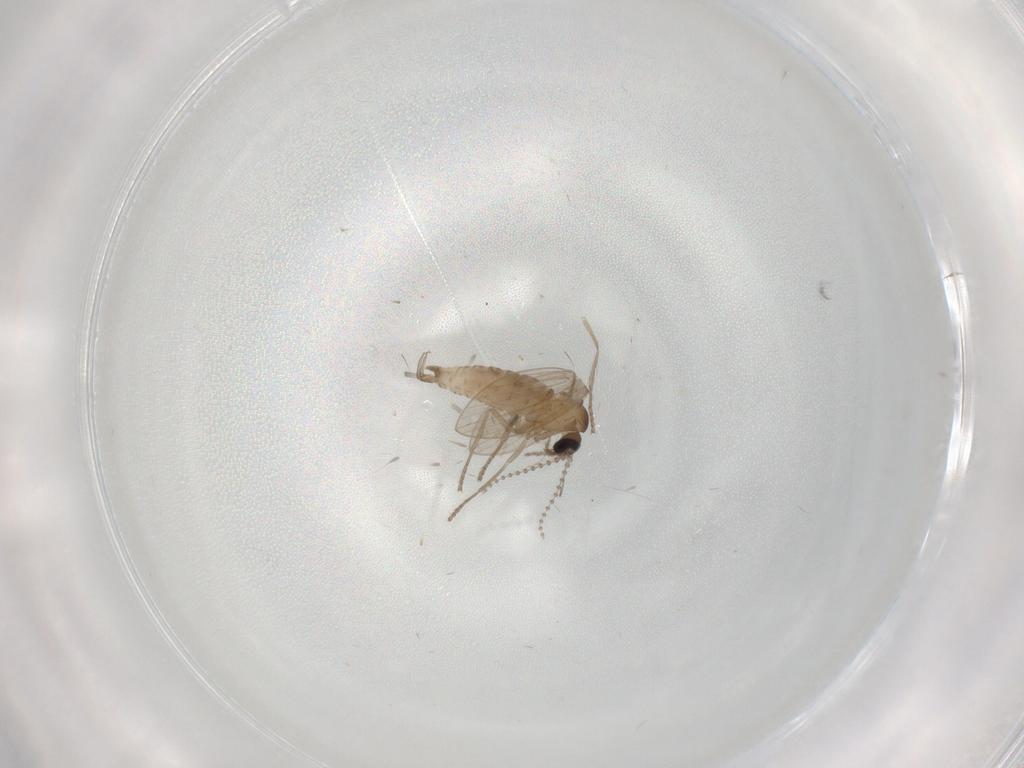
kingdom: Animalia
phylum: Arthropoda
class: Insecta
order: Diptera
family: Psychodidae
